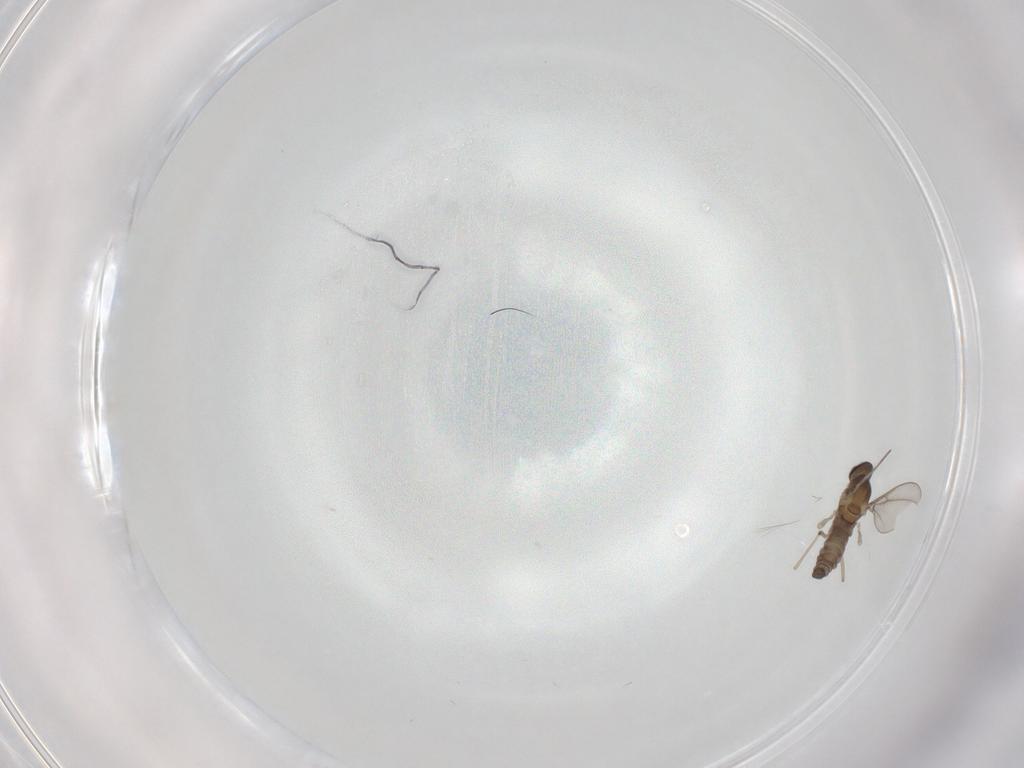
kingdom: Animalia
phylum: Arthropoda
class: Insecta
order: Diptera
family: Cecidomyiidae
